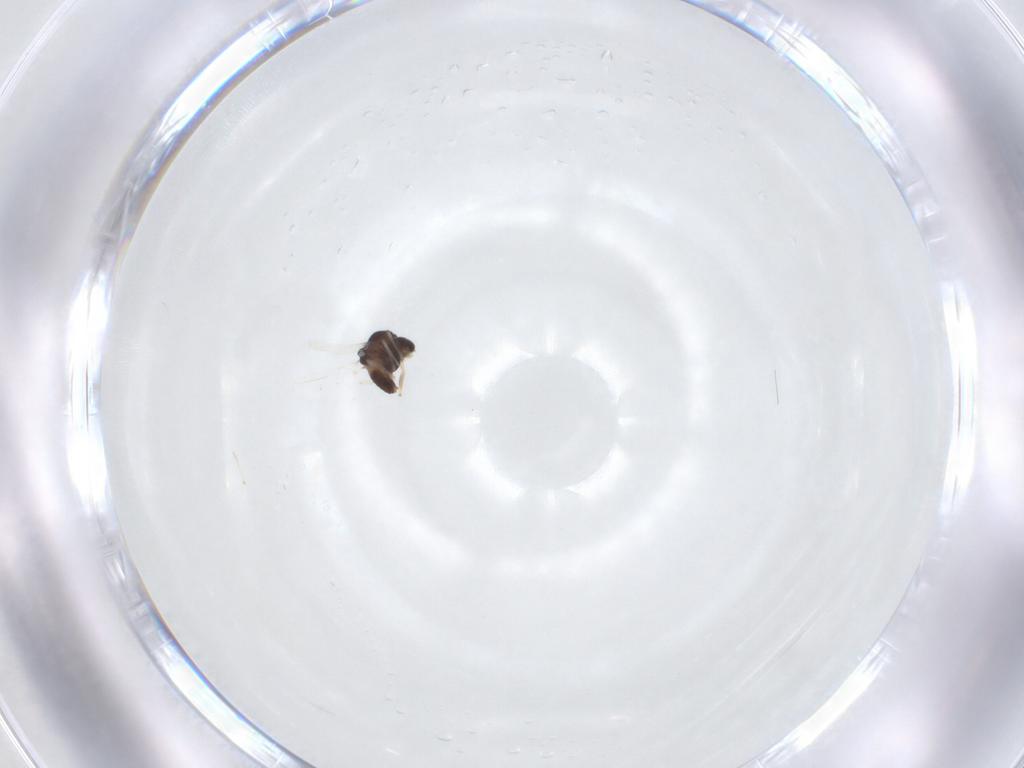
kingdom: Animalia
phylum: Arthropoda
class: Insecta
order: Diptera
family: Chironomidae
